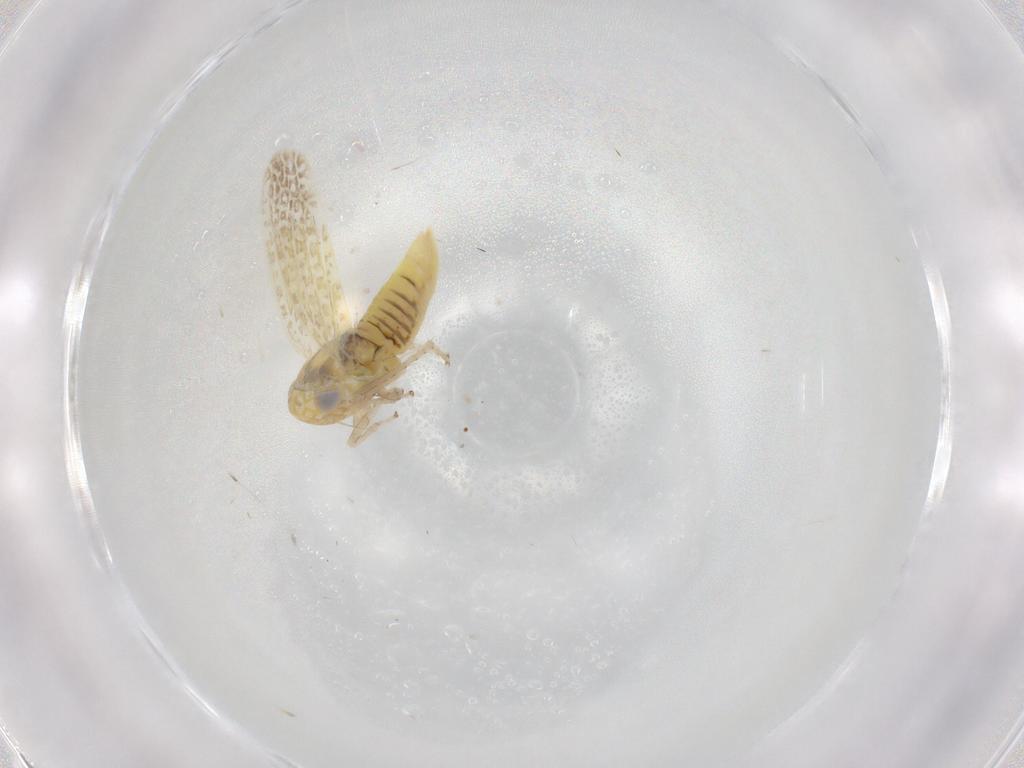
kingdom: Animalia
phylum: Arthropoda
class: Insecta
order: Hemiptera
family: Cicadellidae
